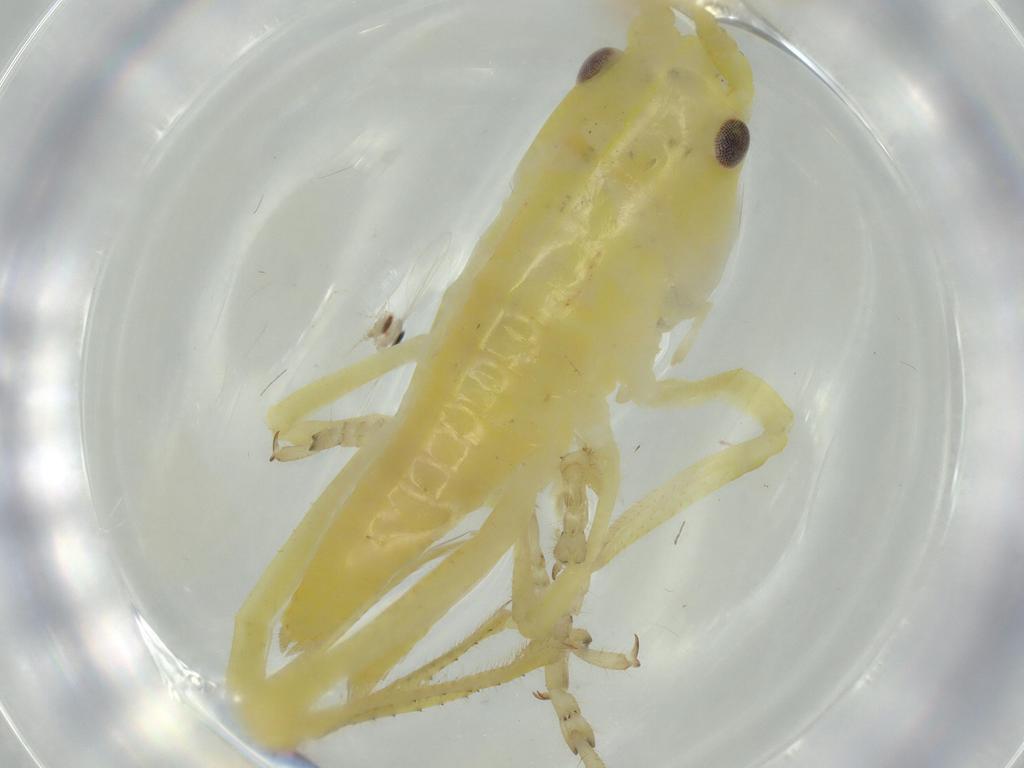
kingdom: Animalia
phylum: Arthropoda
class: Insecta
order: Orthoptera
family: Tettigoniidae
